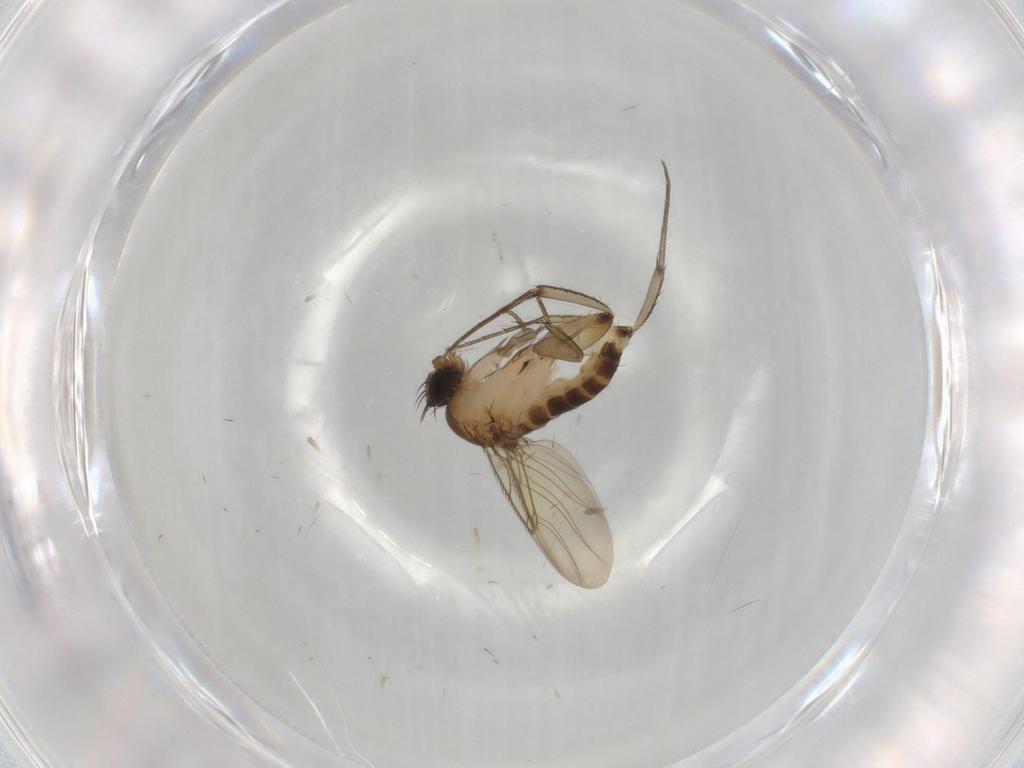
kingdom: Animalia
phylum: Arthropoda
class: Insecta
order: Diptera
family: Phoridae
